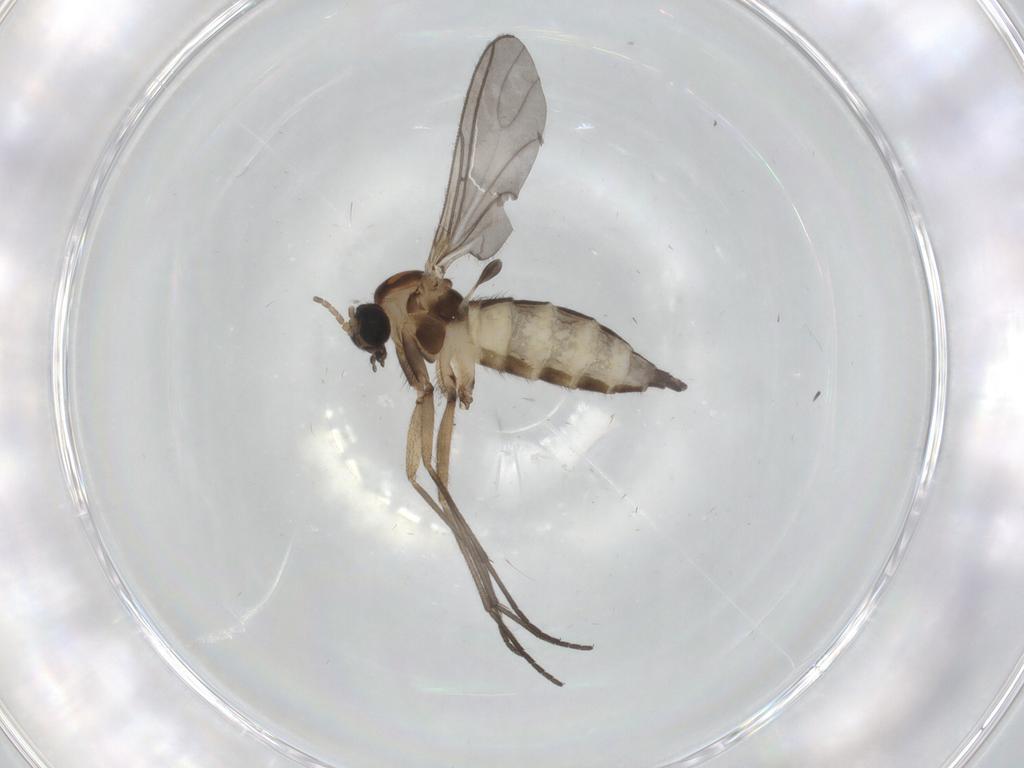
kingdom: Animalia
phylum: Arthropoda
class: Insecta
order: Diptera
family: Sciaridae
